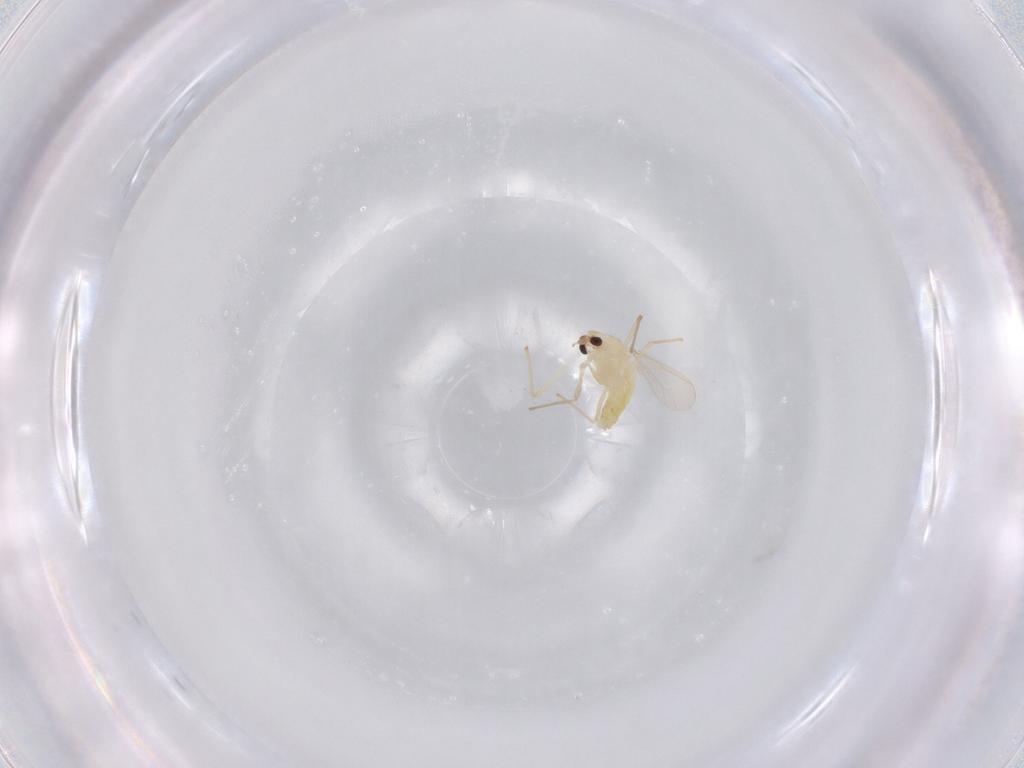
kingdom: Animalia
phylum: Arthropoda
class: Insecta
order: Diptera
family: Chironomidae
